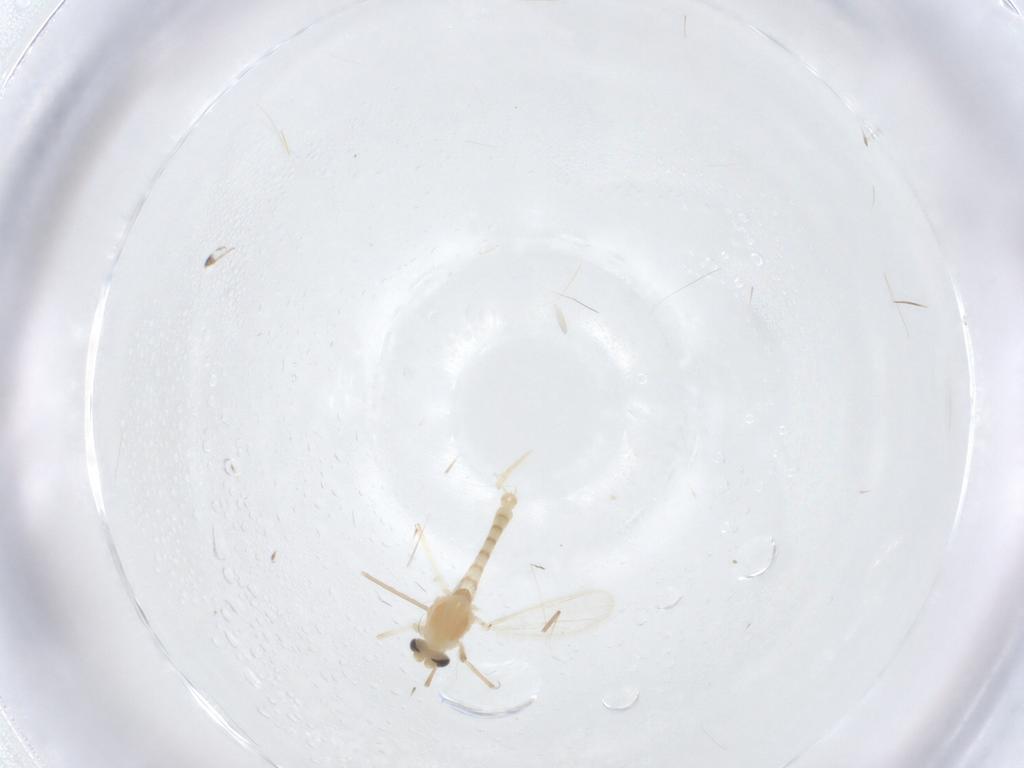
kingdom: Animalia
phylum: Arthropoda
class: Insecta
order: Diptera
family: Cecidomyiidae
